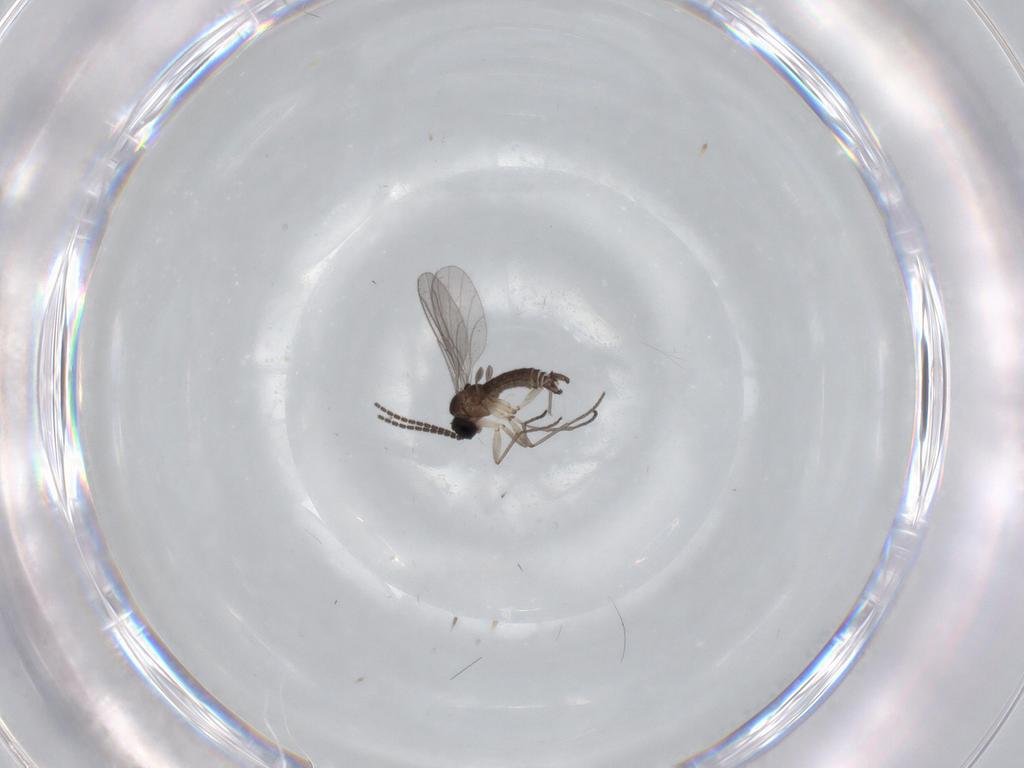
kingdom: Animalia
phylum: Arthropoda
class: Insecta
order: Diptera
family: Sciaridae
